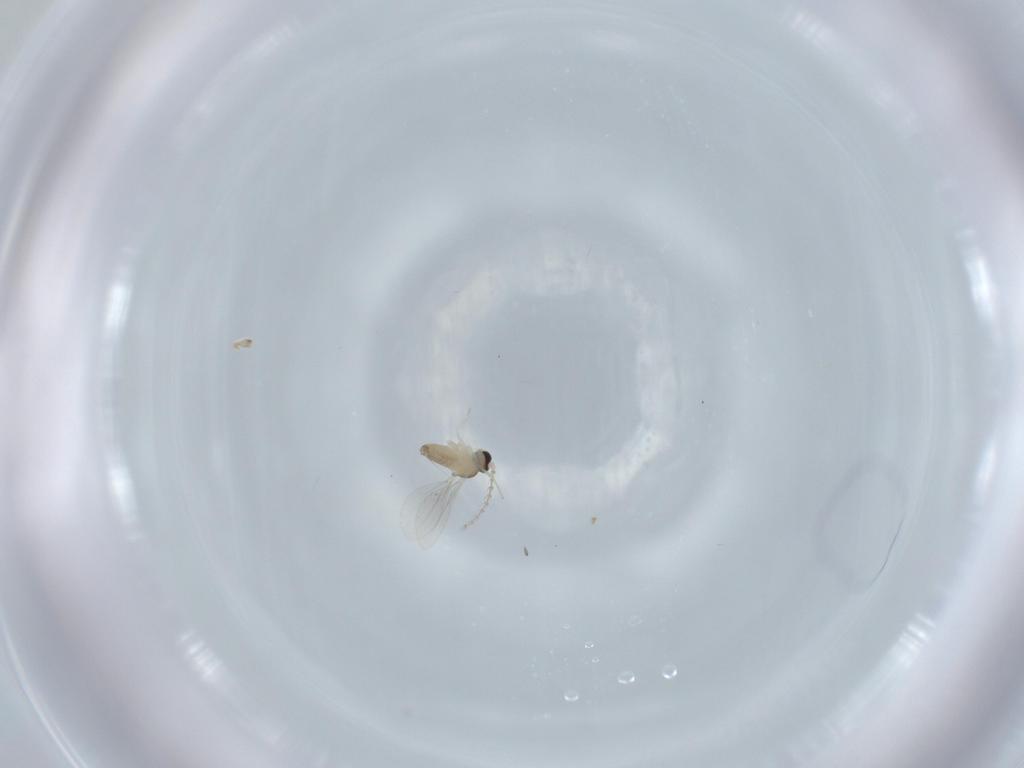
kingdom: Animalia
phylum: Arthropoda
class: Insecta
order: Diptera
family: Cecidomyiidae
